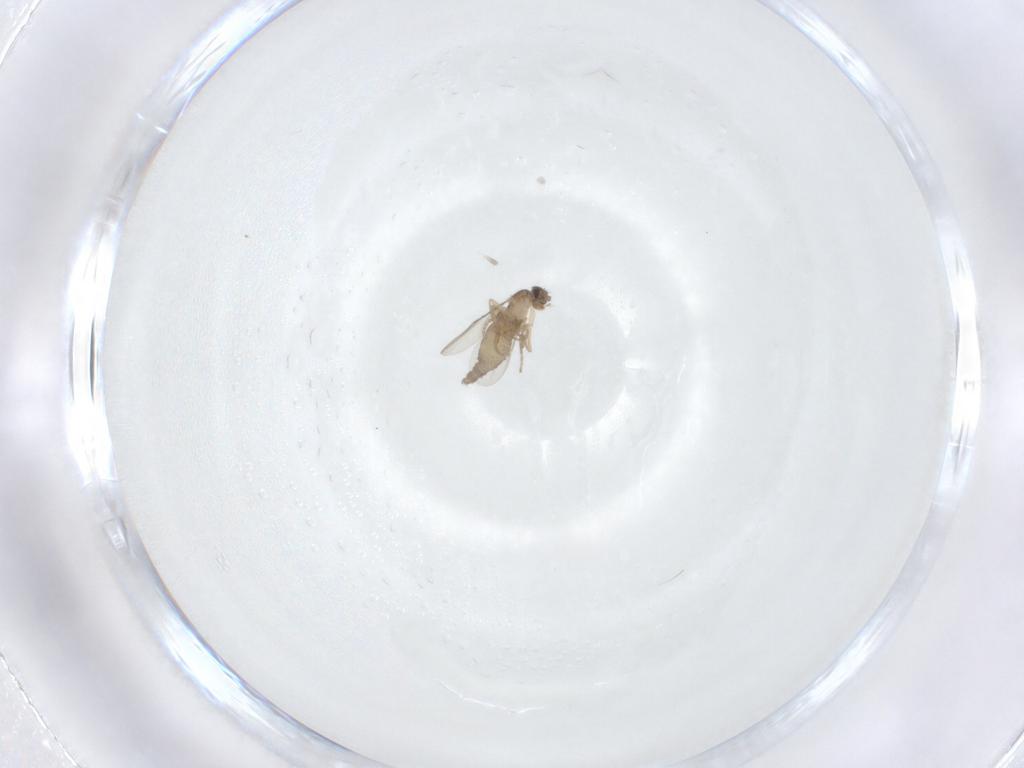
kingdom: Animalia
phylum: Arthropoda
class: Insecta
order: Diptera
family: Phoridae
